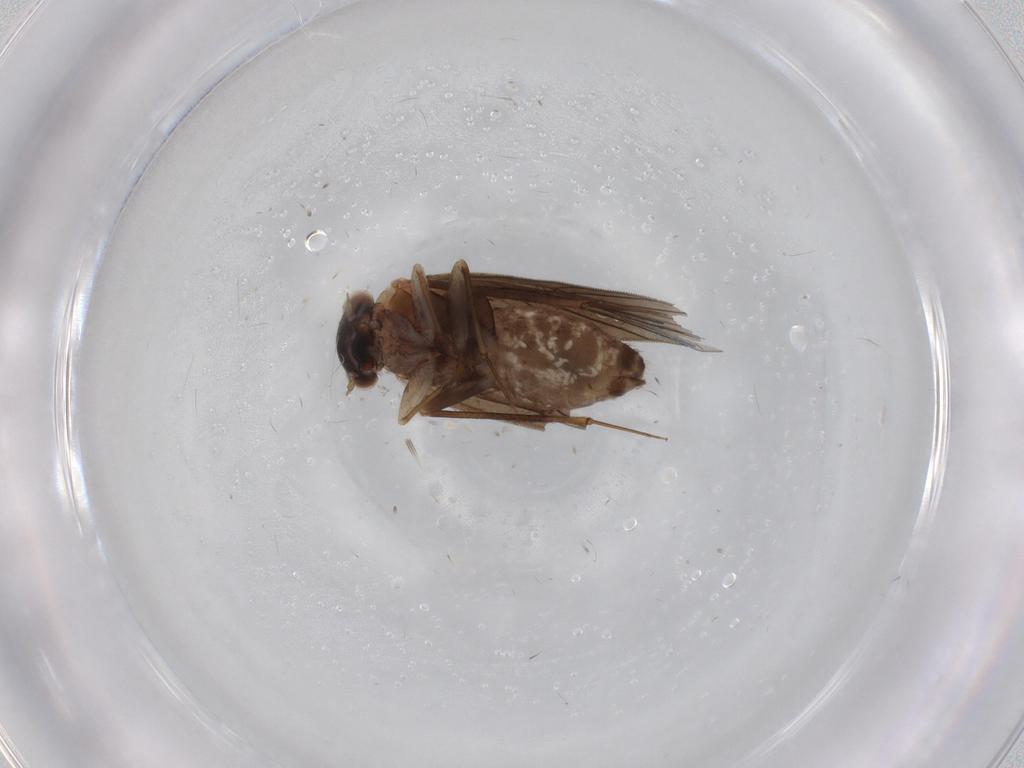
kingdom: Animalia
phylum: Arthropoda
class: Insecta
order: Psocodea
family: Lepidopsocidae
